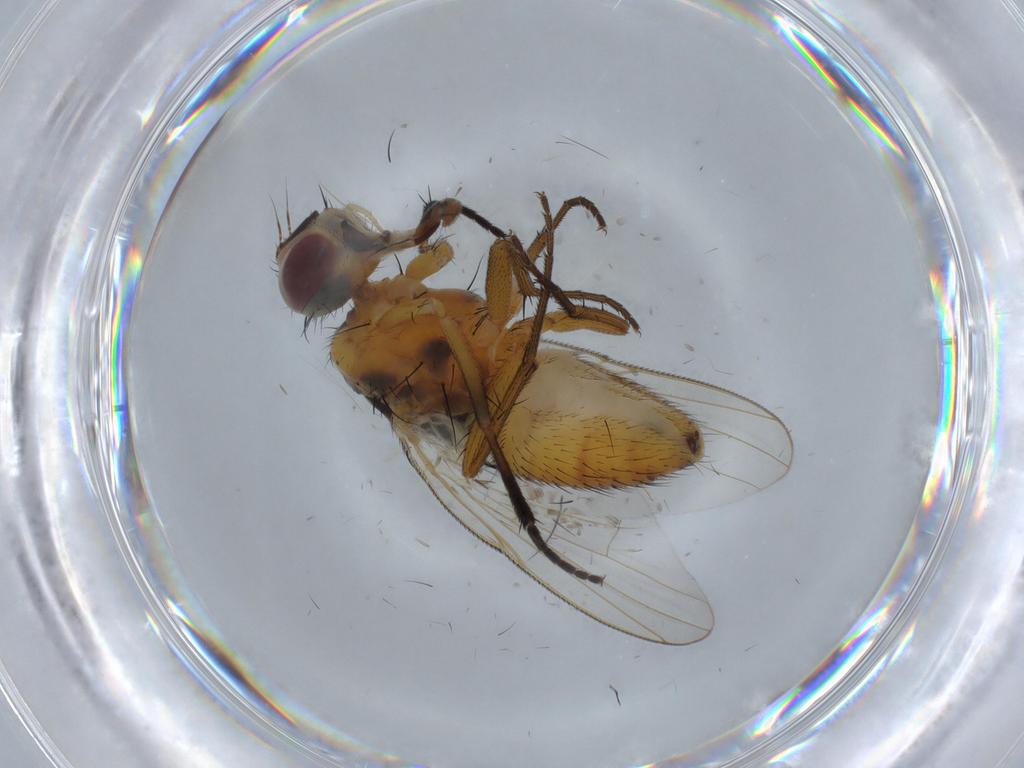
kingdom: Animalia
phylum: Arthropoda
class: Insecta
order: Diptera
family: Muscidae
